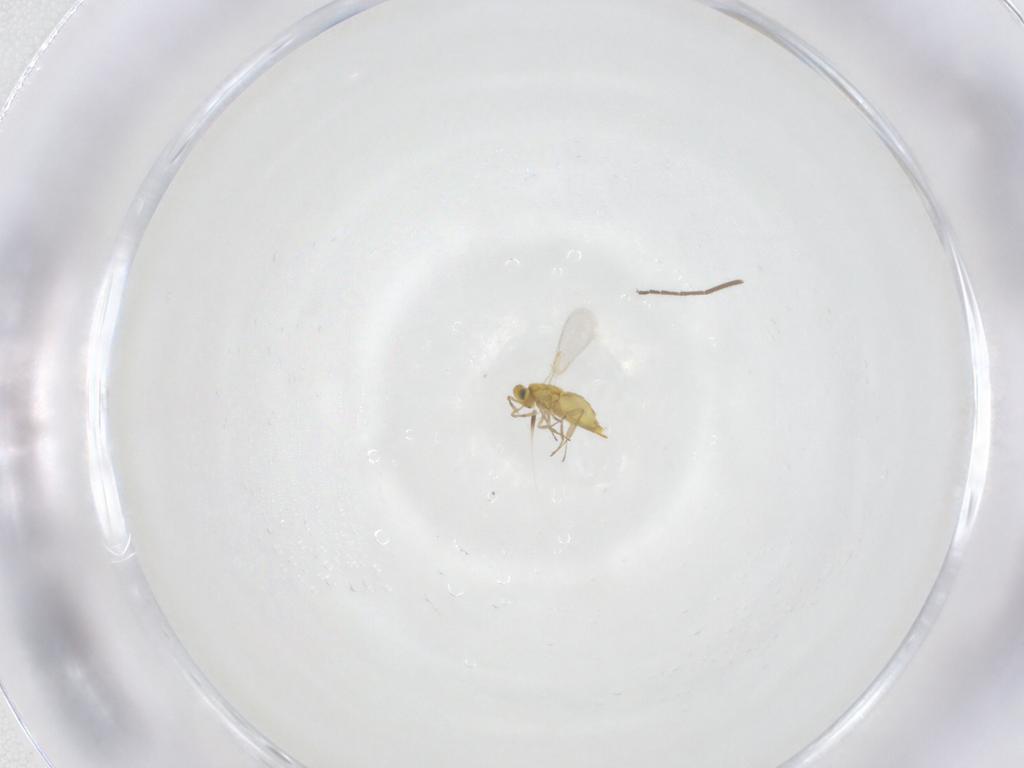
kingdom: Animalia
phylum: Arthropoda
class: Insecta
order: Hymenoptera
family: Aphelinidae
